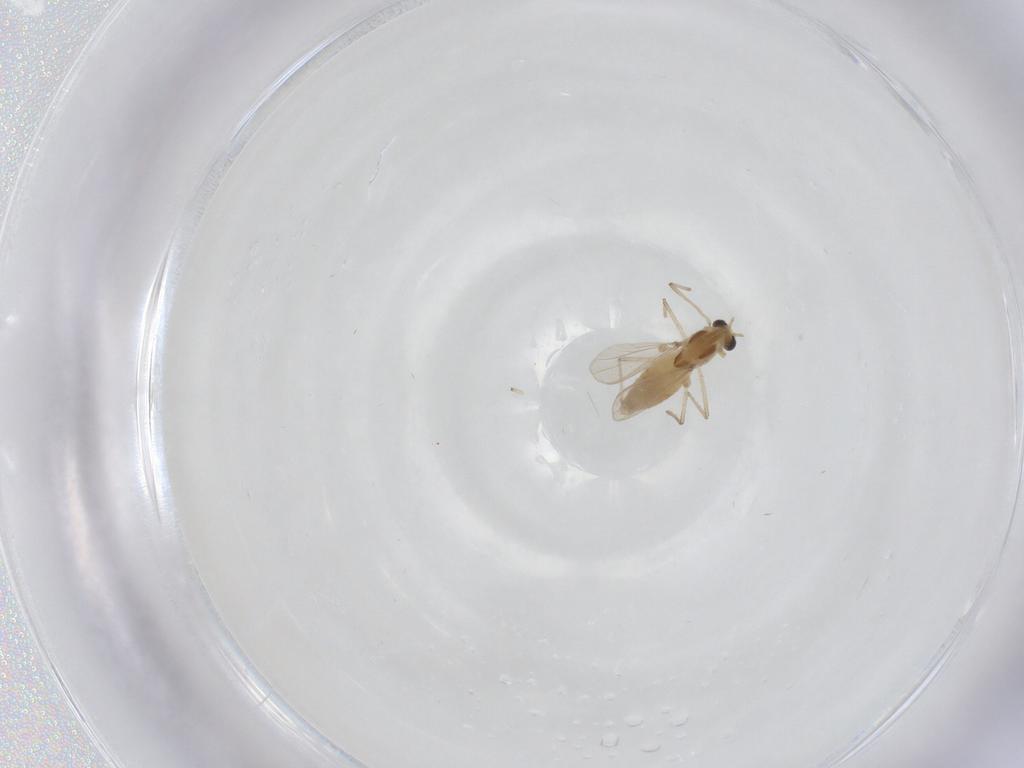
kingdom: Animalia
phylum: Arthropoda
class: Insecta
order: Diptera
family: Chironomidae
